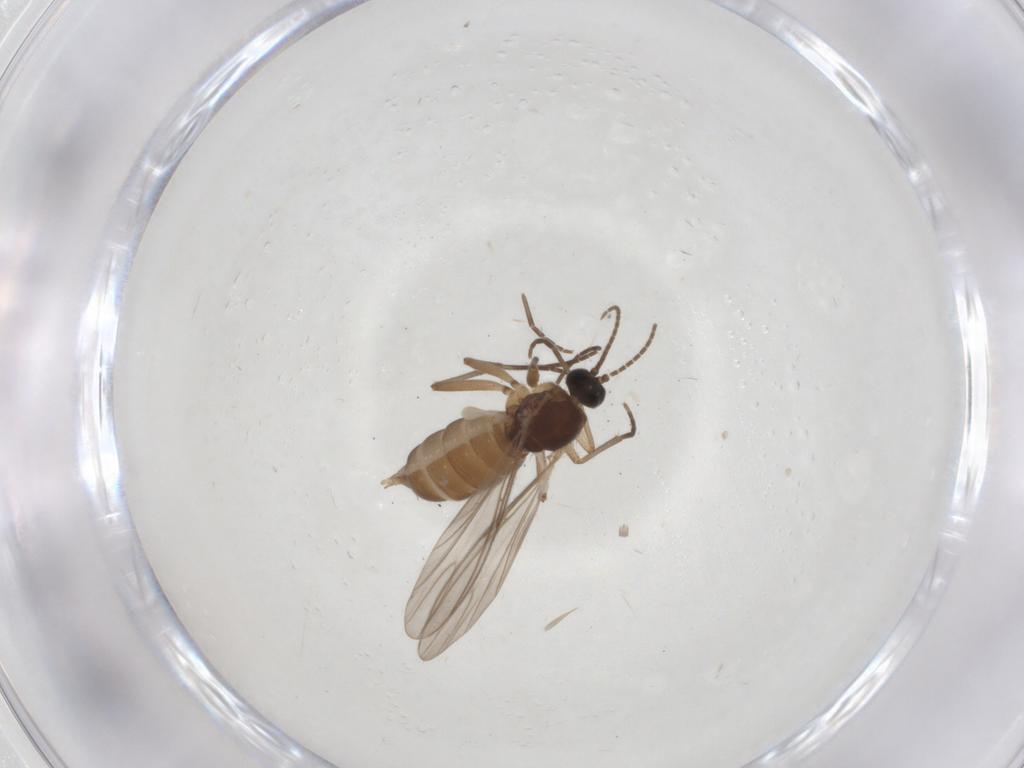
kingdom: Animalia
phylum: Arthropoda
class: Insecta
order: Diptera
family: Sciaridae
